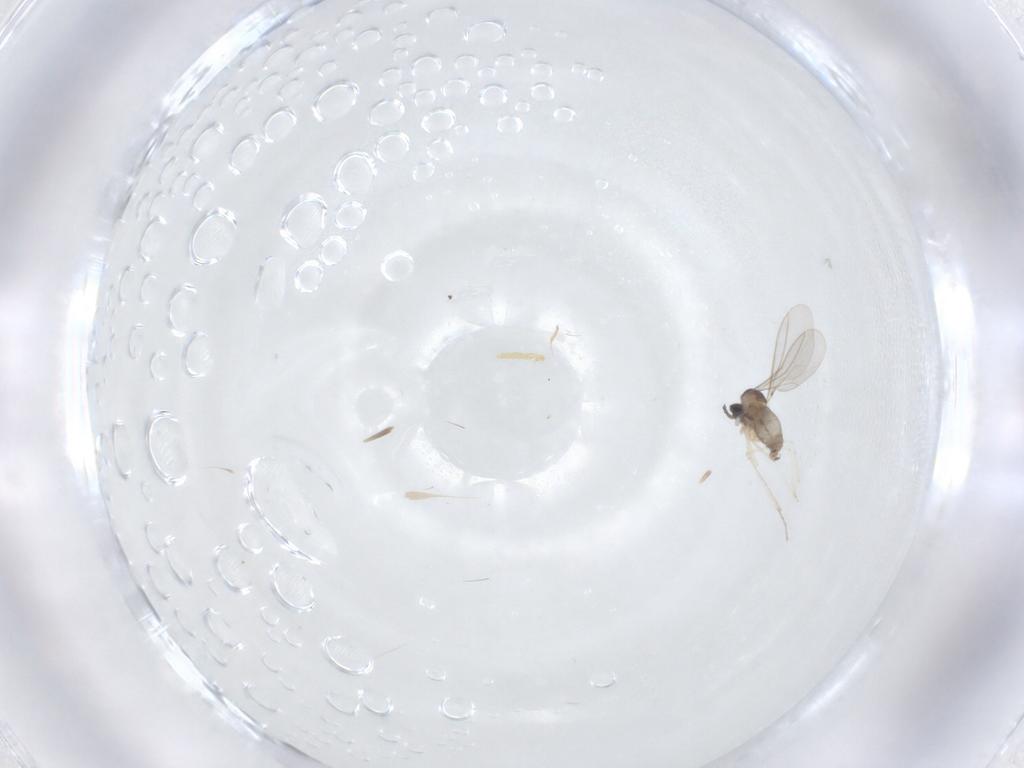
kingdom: Animalia
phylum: Arthropoda
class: Insecta
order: Diptera
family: Cecidomyiidae
